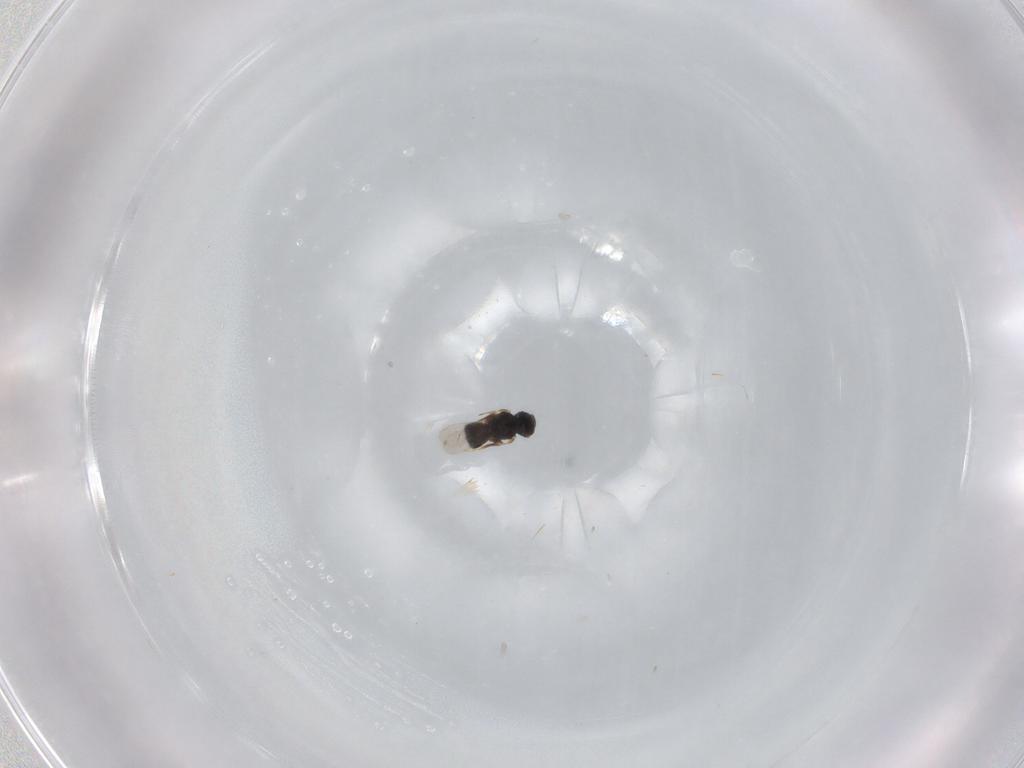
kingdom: Animalia
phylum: Arthropoda
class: Insecta
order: Hymenoptera
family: Scelionidae
